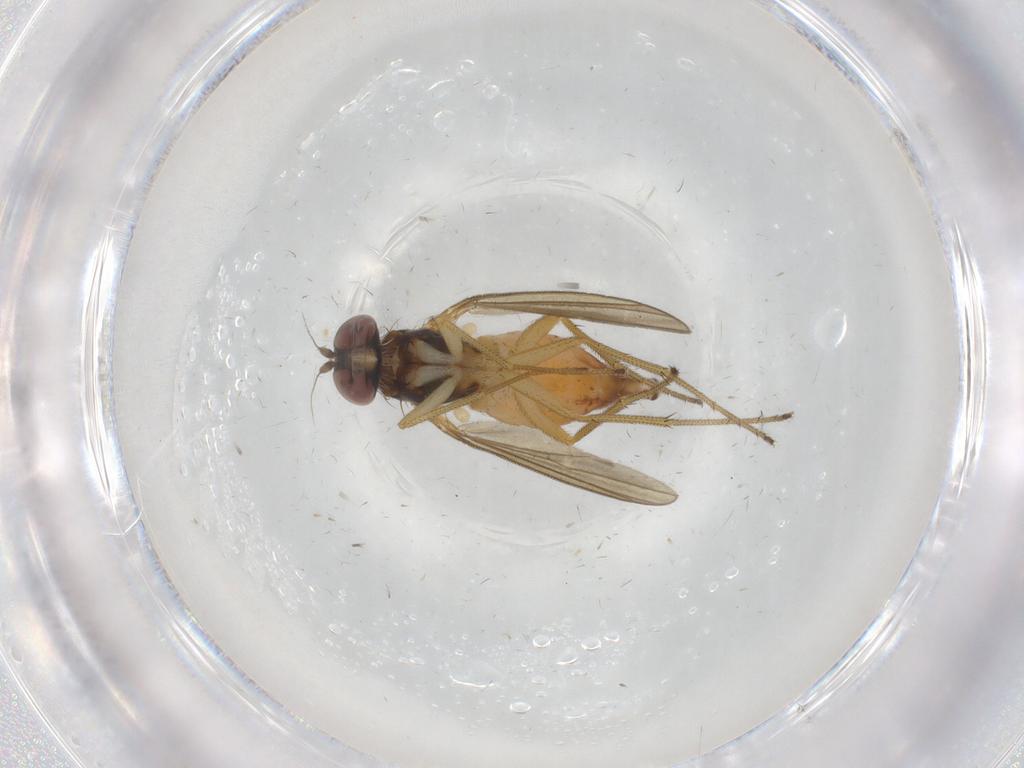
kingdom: Animalia
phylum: Arthropoda
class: Insecta
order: Diptera
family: Dolichopodidae
